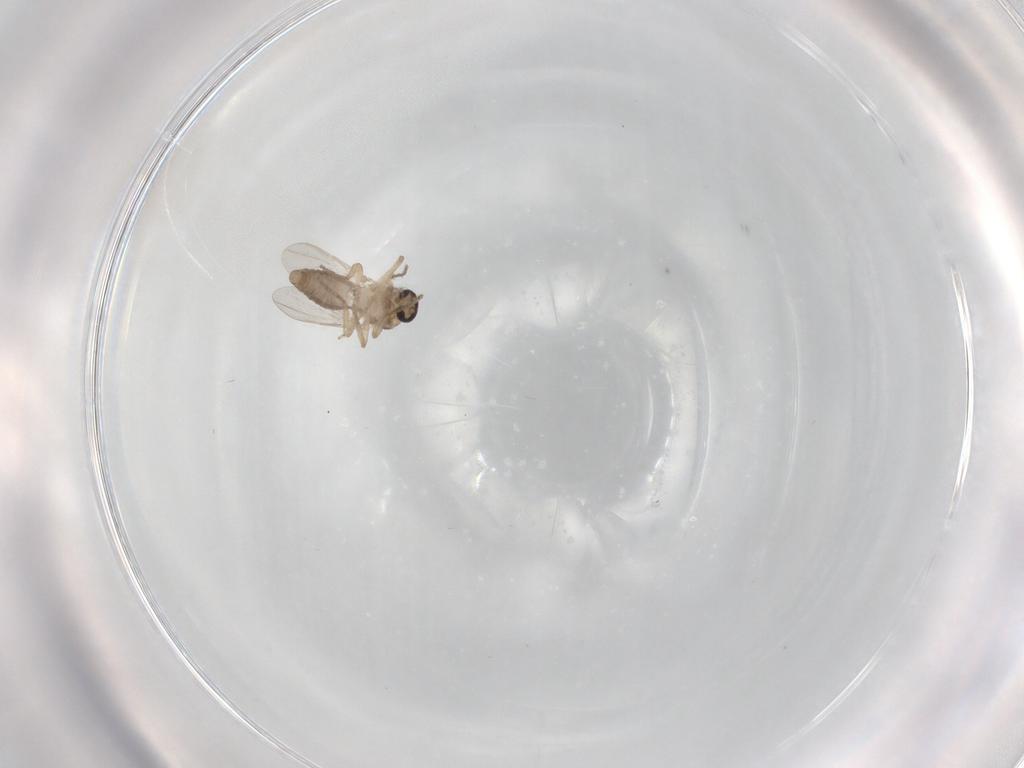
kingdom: Animalia
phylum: Arthropoda
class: Insecta
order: Diptera
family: Ceratopogonidae
